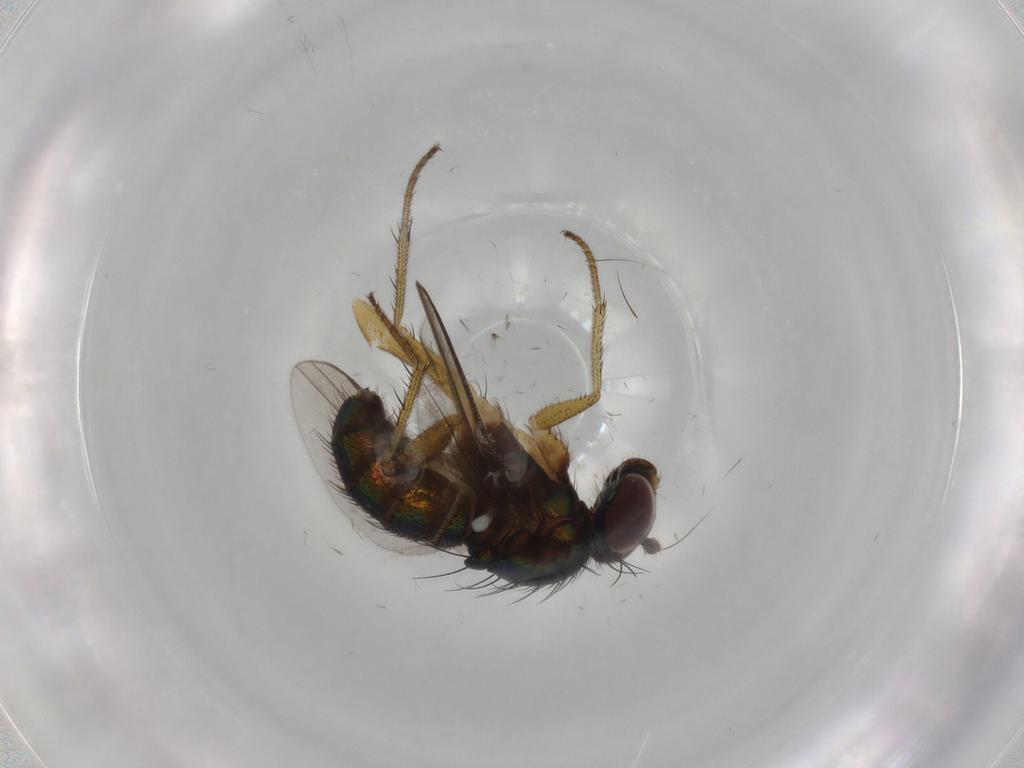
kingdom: Animalia
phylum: Arthropoda
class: Insecta
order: Diptera
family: Dolichopodidae
